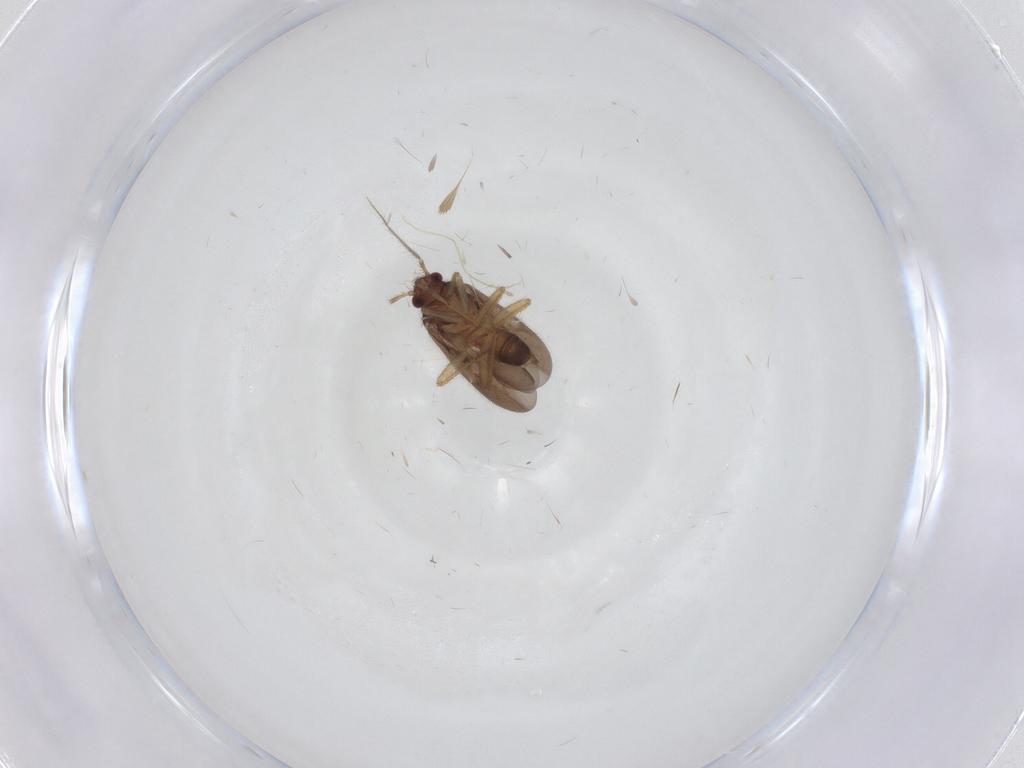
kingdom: Animalia
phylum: Arthropoda
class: Insecta
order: Hemiptera
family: Ceratocombidae
